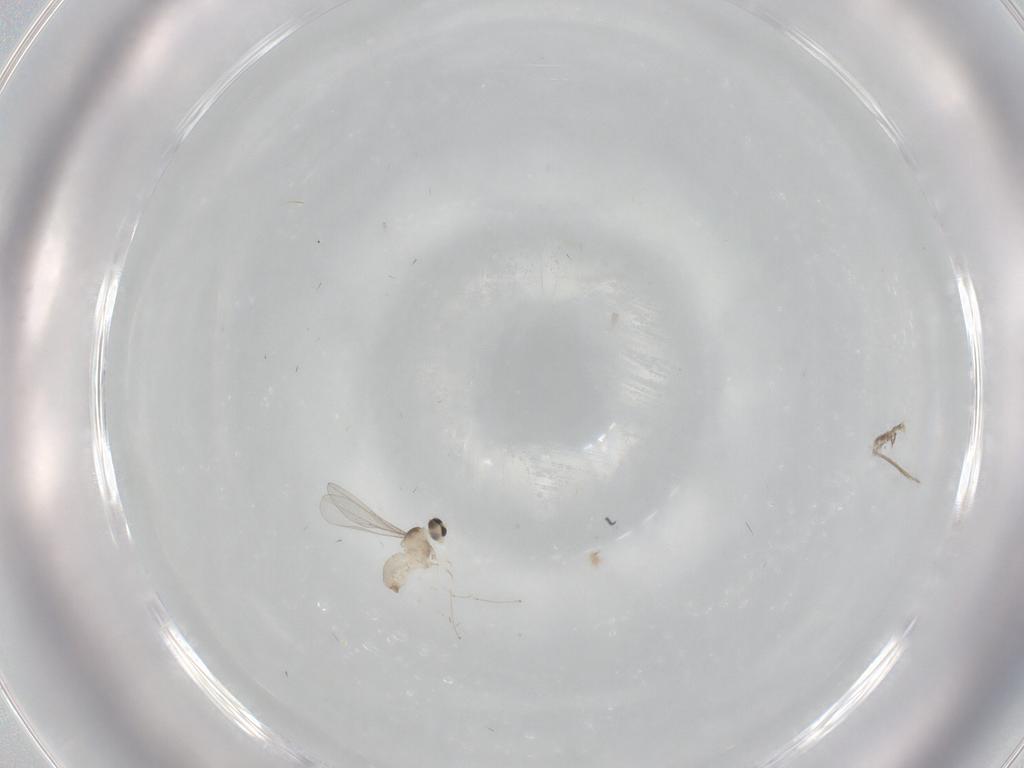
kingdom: Animalia
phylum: Arthropoda
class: Insecta
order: Diptera
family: Cecidomyiidae
